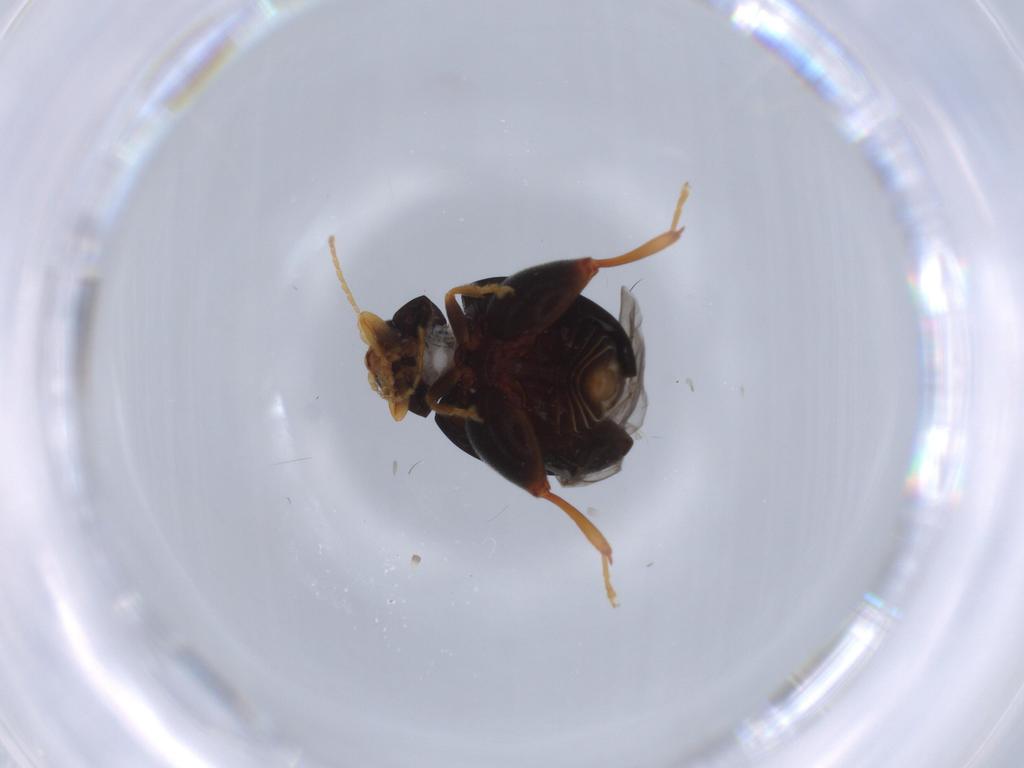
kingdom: Animalia
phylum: Arthropoda
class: Insecta
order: Coleoptera
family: Chrysomelidae
